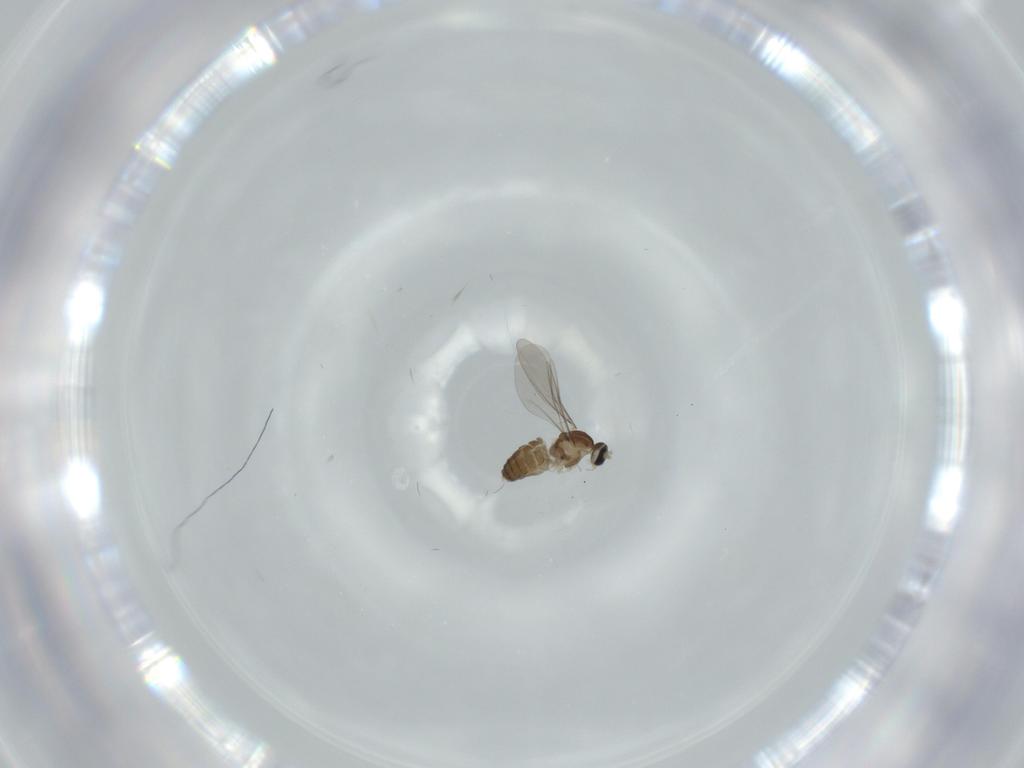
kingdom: Animalia
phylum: Arthropoda
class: Insecta
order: Diptera
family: Cecidomyiidae
